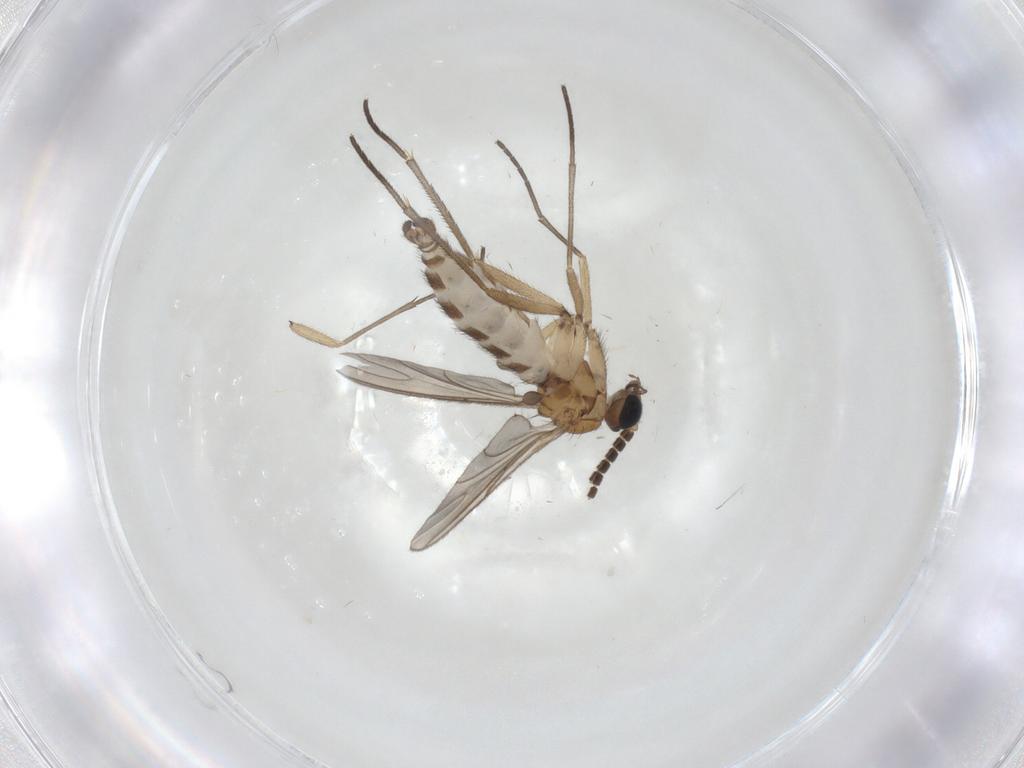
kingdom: Animalia
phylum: Arthropoda
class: Insecta
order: Diptera
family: Sciaridae
